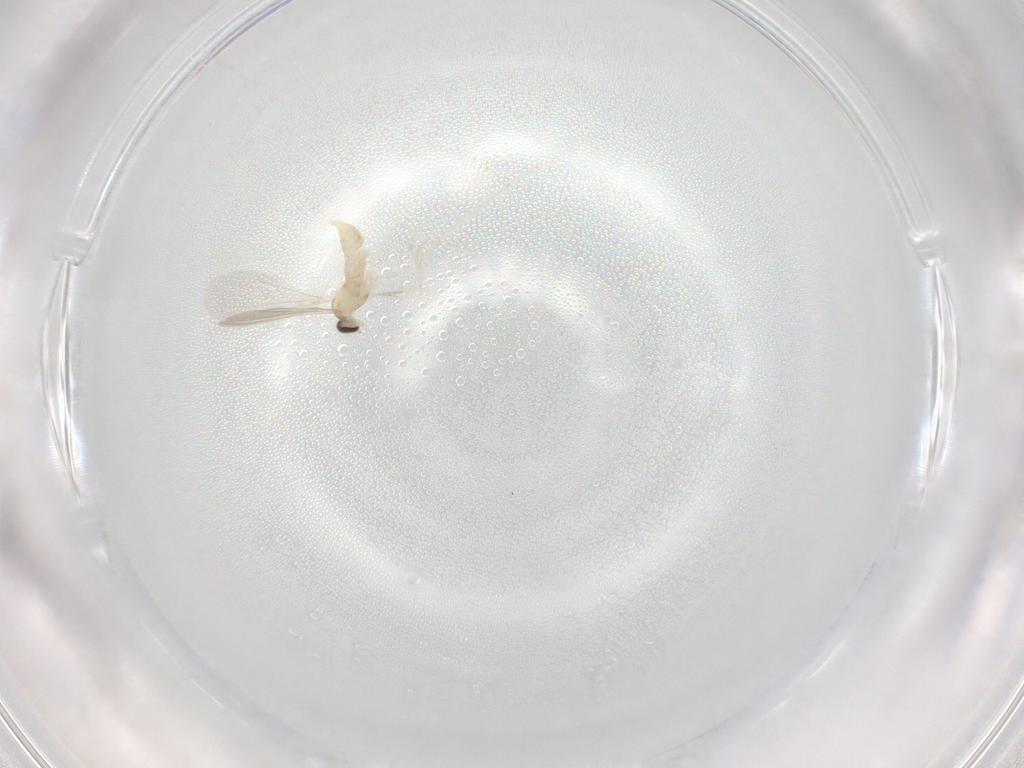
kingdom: Animalia
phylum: Arthropoda
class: Insecta
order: Diptera
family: Cecidomyiidae
